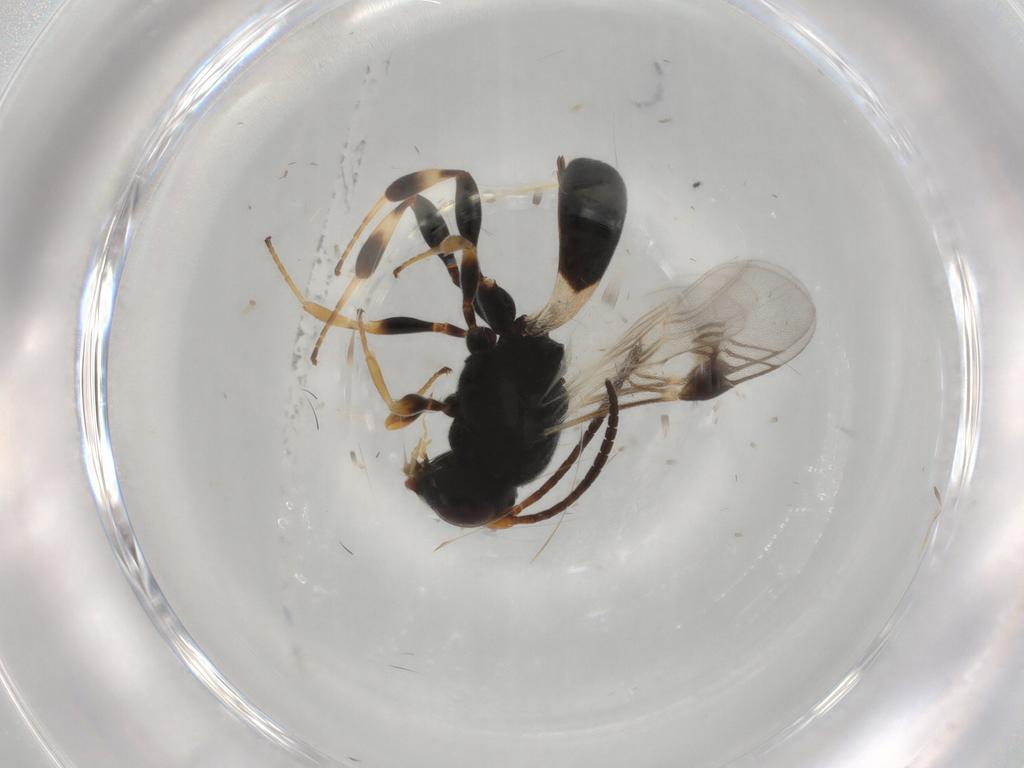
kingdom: Animalia
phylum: Arthropoda
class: Insecta
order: Hymenoptera
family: Braconidae
